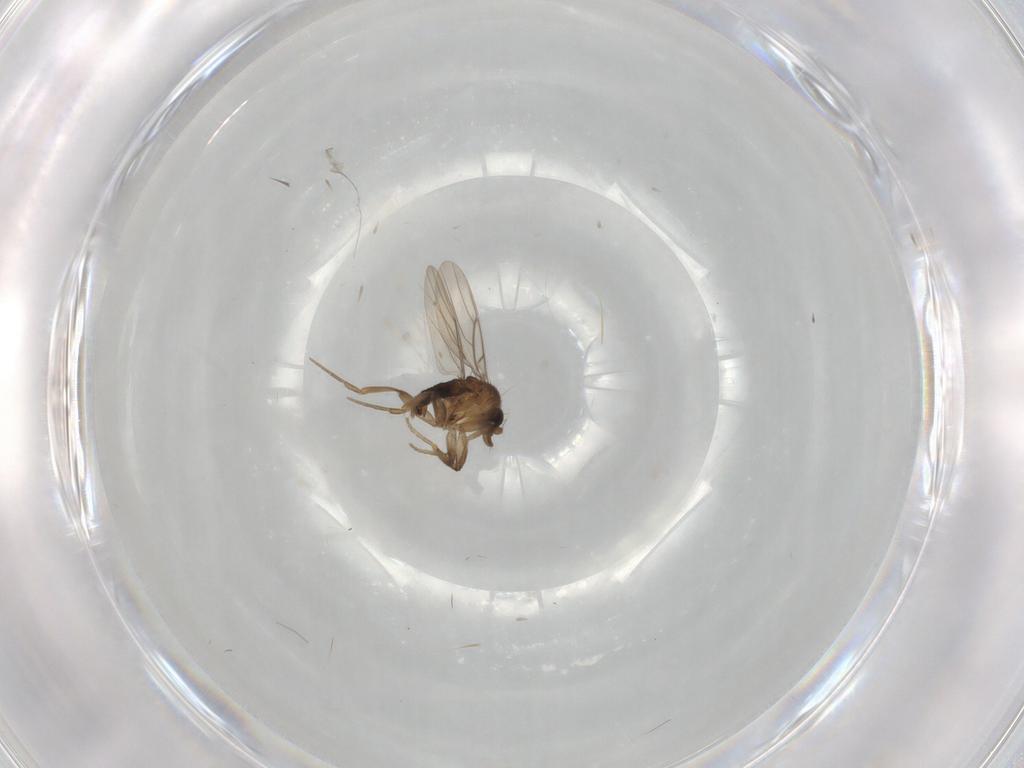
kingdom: Animalia
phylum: Arthropoda
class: Insecta
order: Diptera
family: Phoridae
